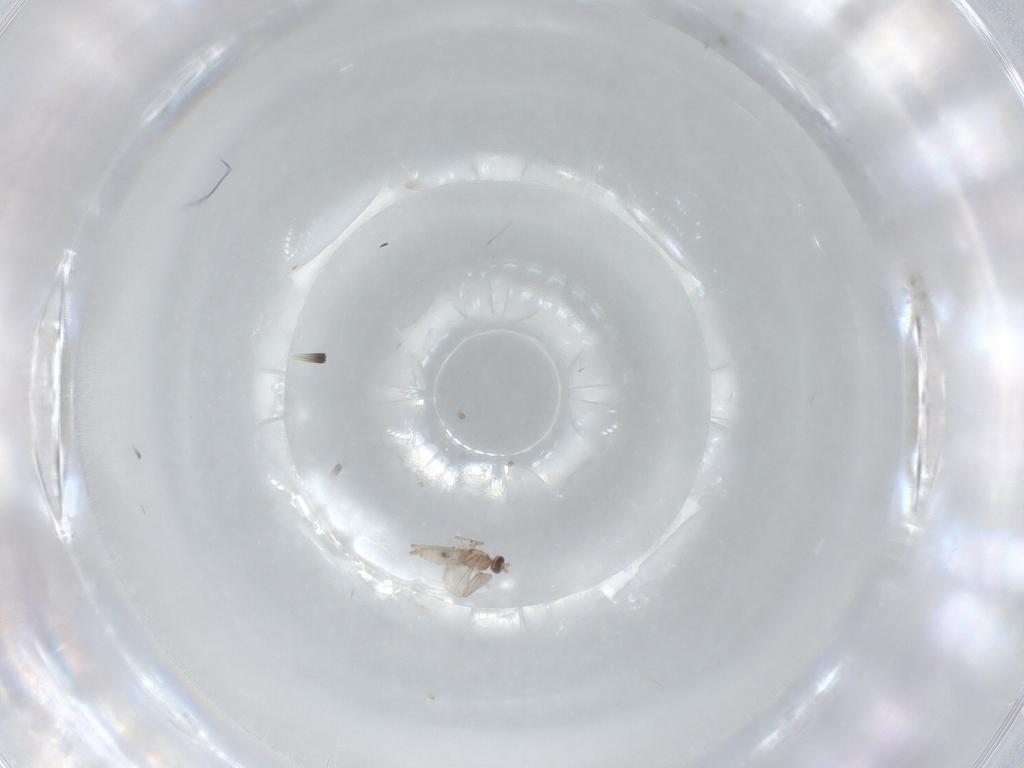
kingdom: Animalia
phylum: Arthropoda
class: Insecta
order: Diptera
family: Cecidomyiidae
